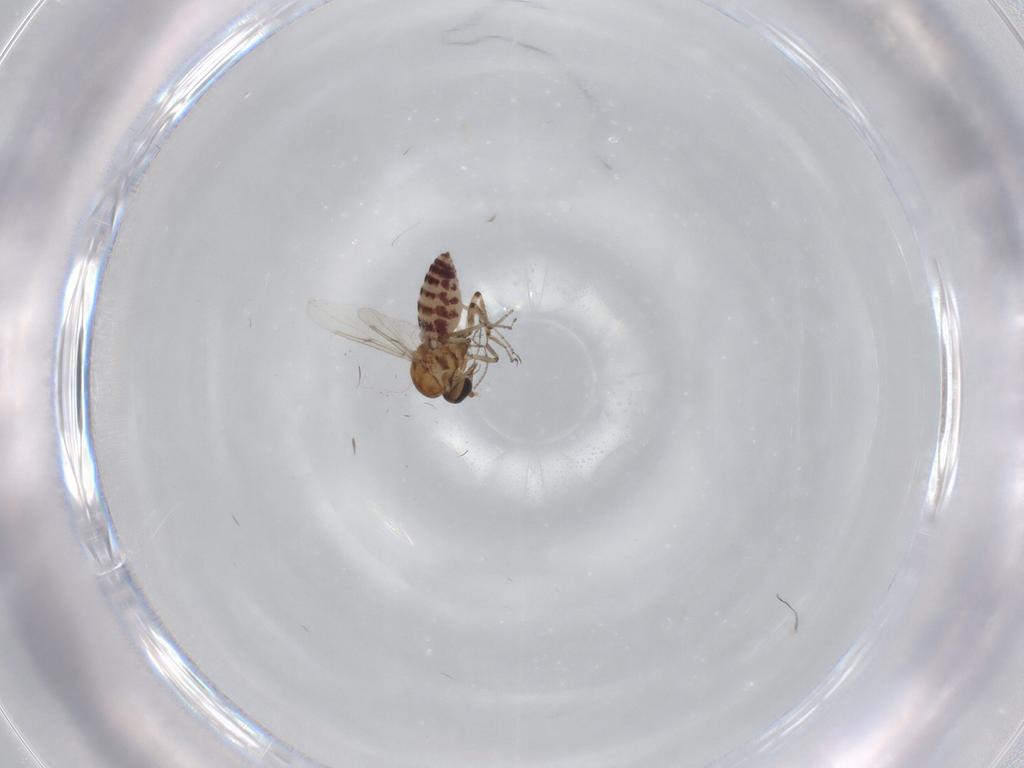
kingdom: Animalia
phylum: Arthropoda
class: Insecta
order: Diptera
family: Ceratopogonidae
